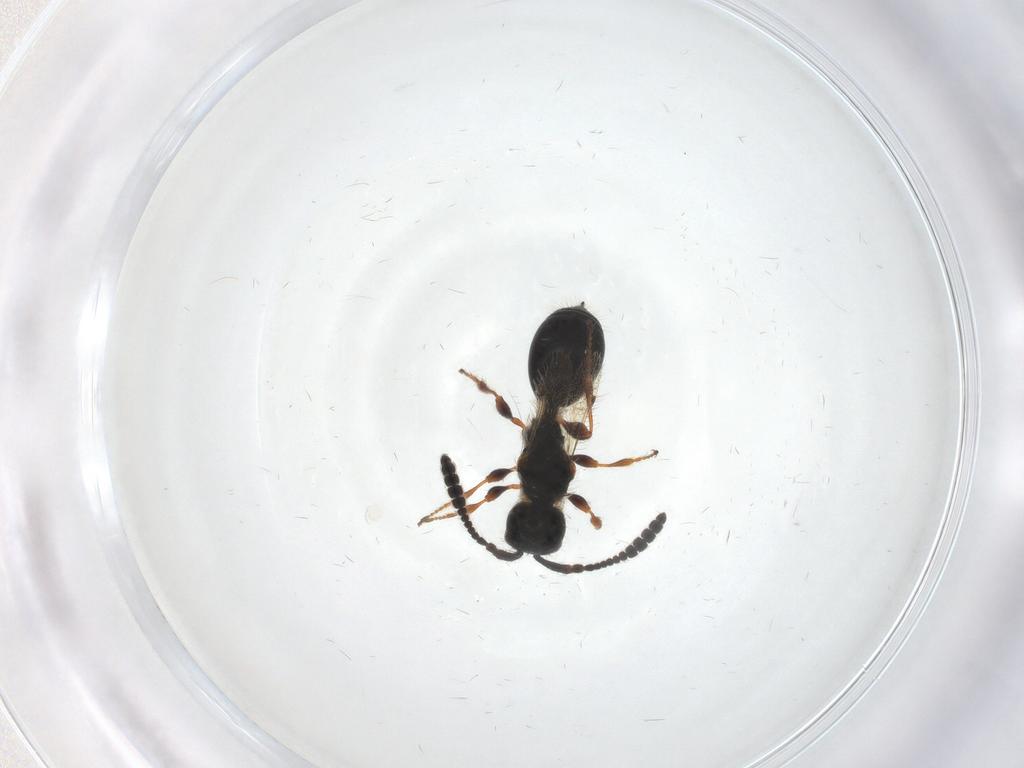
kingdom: Animalia
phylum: Arthropoda
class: Insecta
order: Hymenoptera
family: Diapriidae
